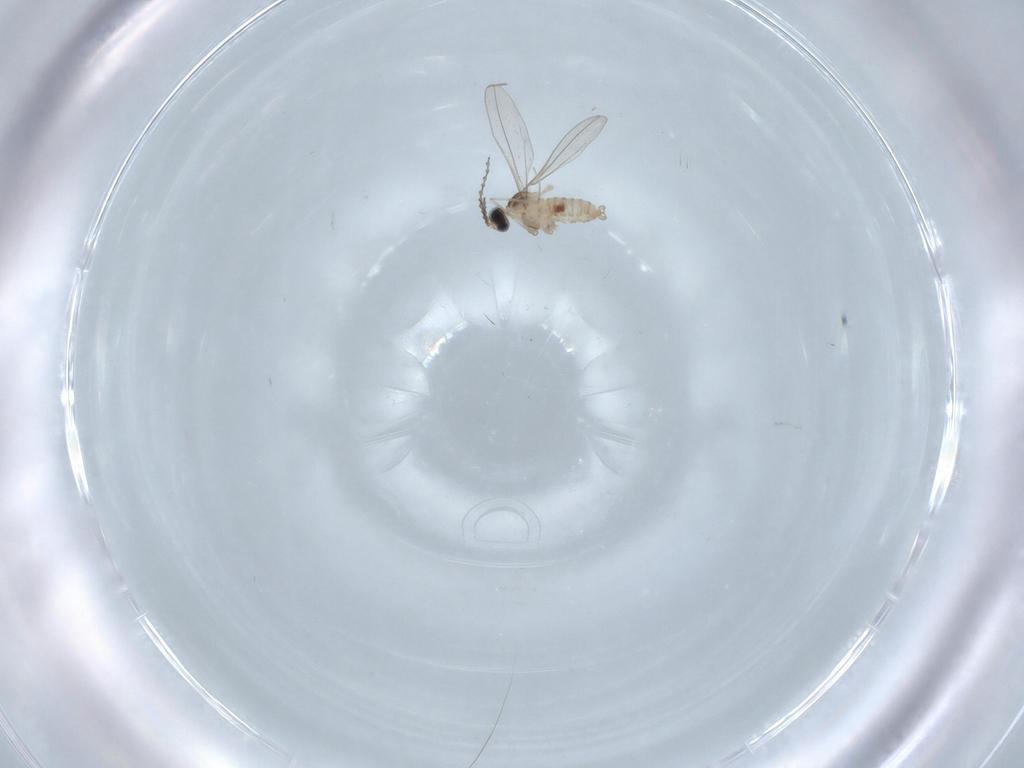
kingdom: Animalia
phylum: Arthropoda
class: Insecta
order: Diptera
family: Cecidomyiidae
